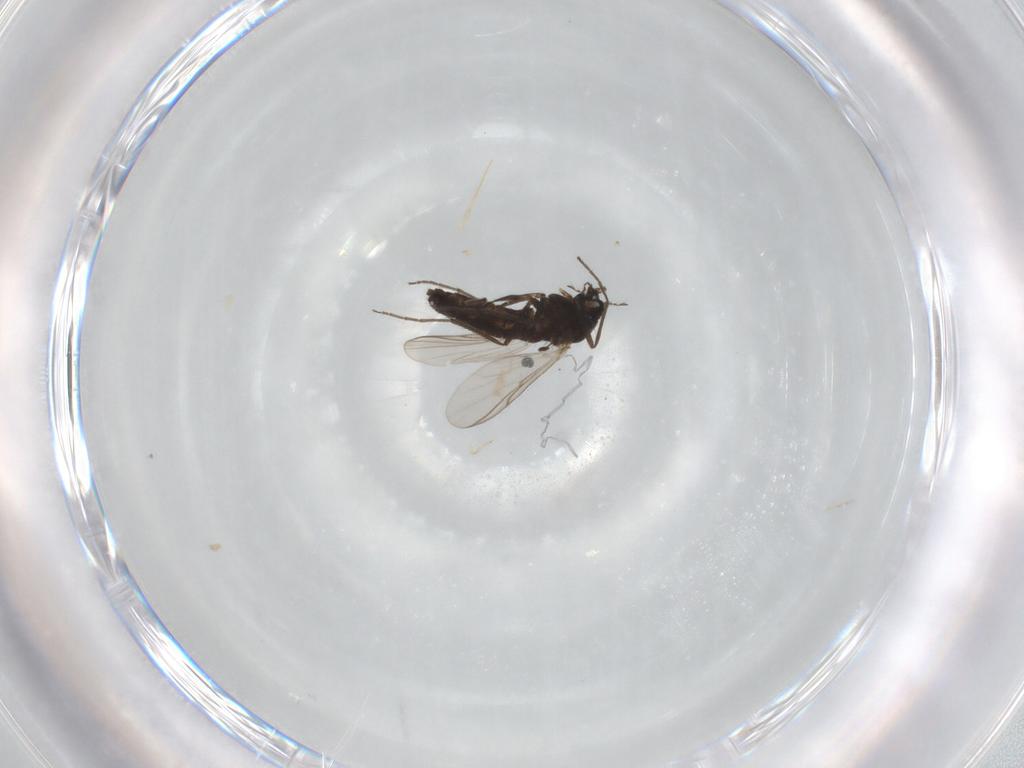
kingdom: Animalia
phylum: Arthropoda
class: Insecta
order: Diptera
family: Chironomidae
